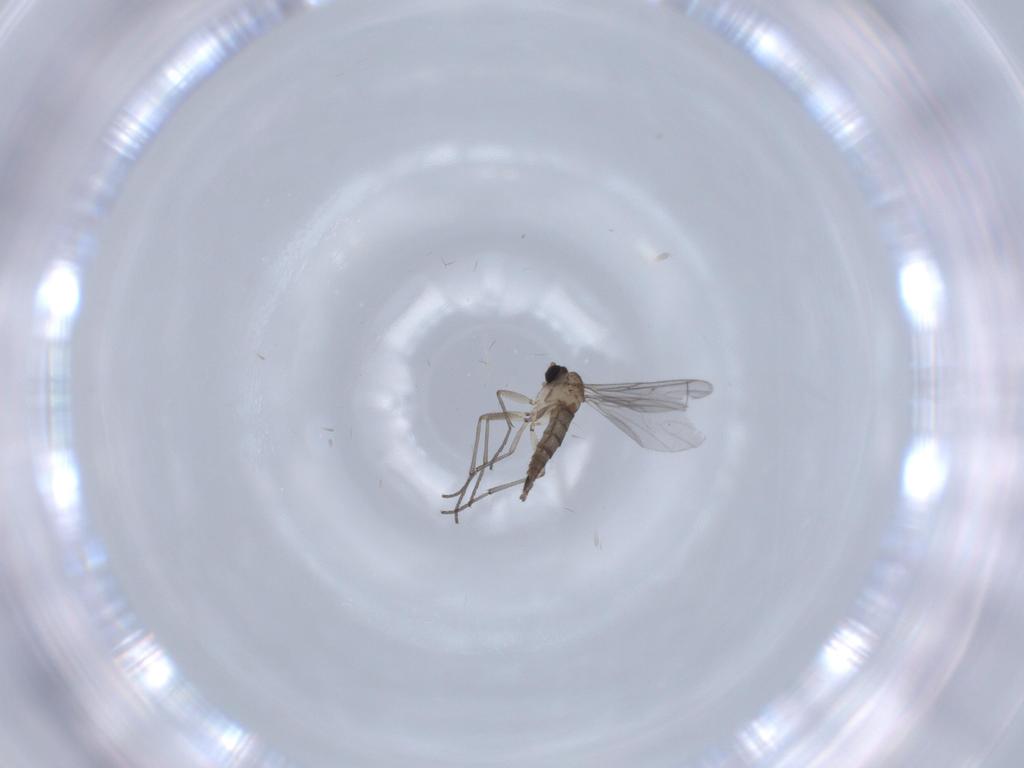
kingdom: Animalia
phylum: Arthropoda
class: Insecta
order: Diptera
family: Sciaridae
